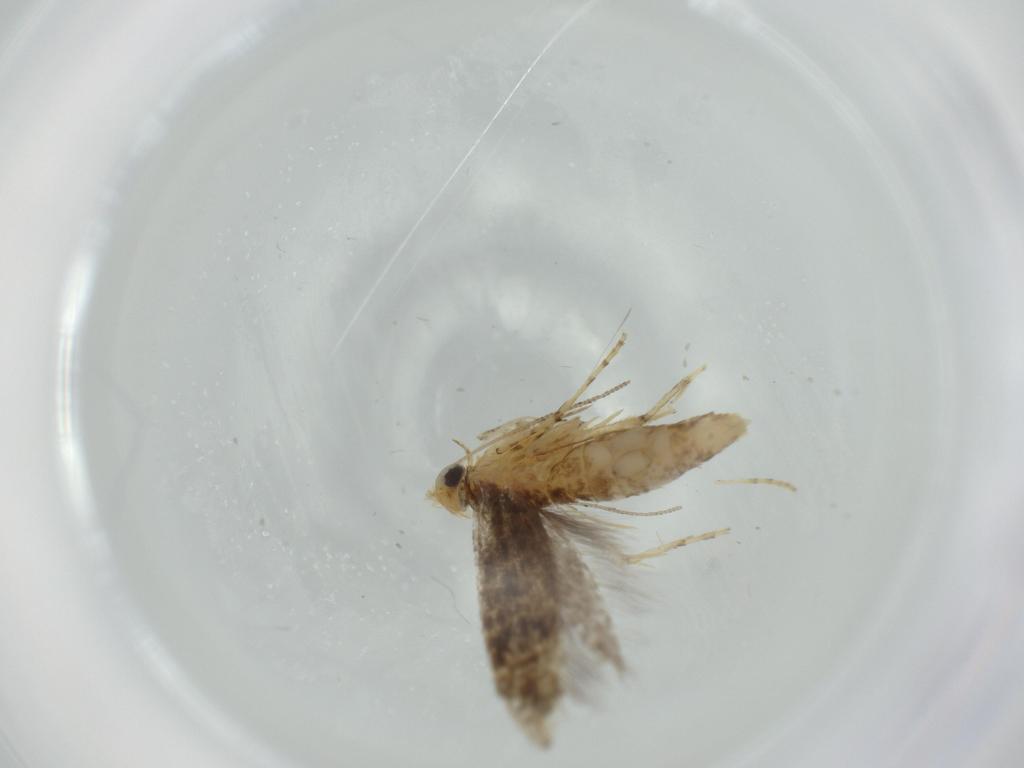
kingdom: Animalia
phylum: Arthropoda
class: Insecta
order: Lepidoptera
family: Argyresthiidae
